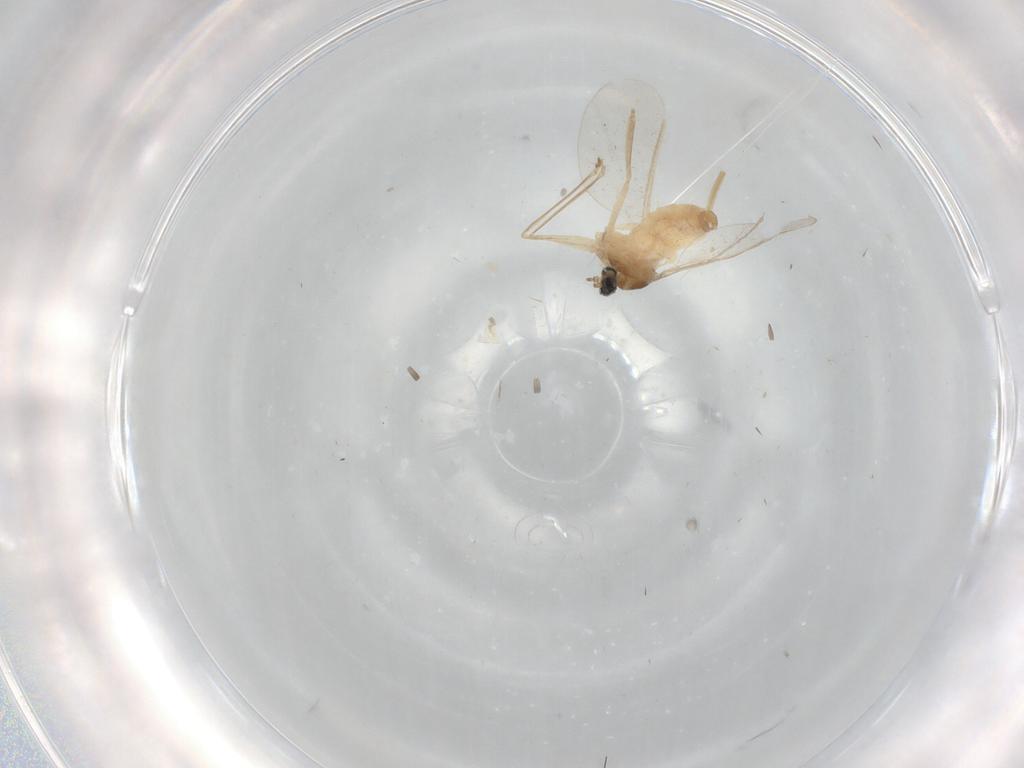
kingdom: Animalia
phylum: Arthropoda
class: Insecta
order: Diptera
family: Cecidomyiidae
